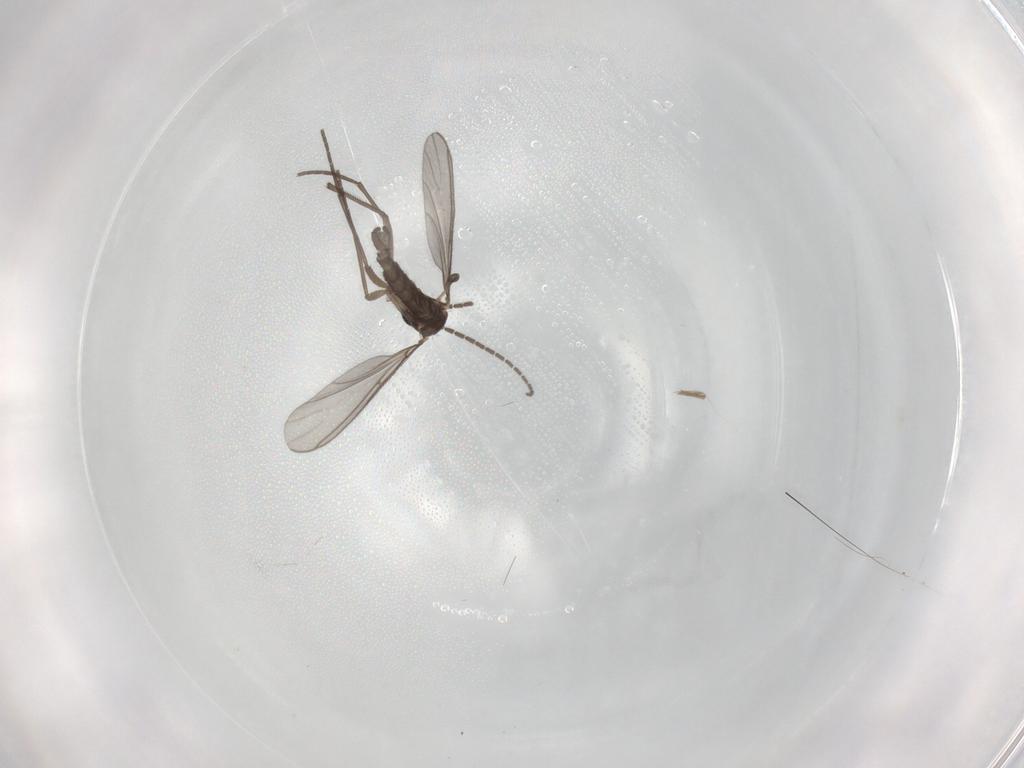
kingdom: Animalia
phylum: Arthropoda
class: Insecta
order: Diptera
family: Sciaridae
